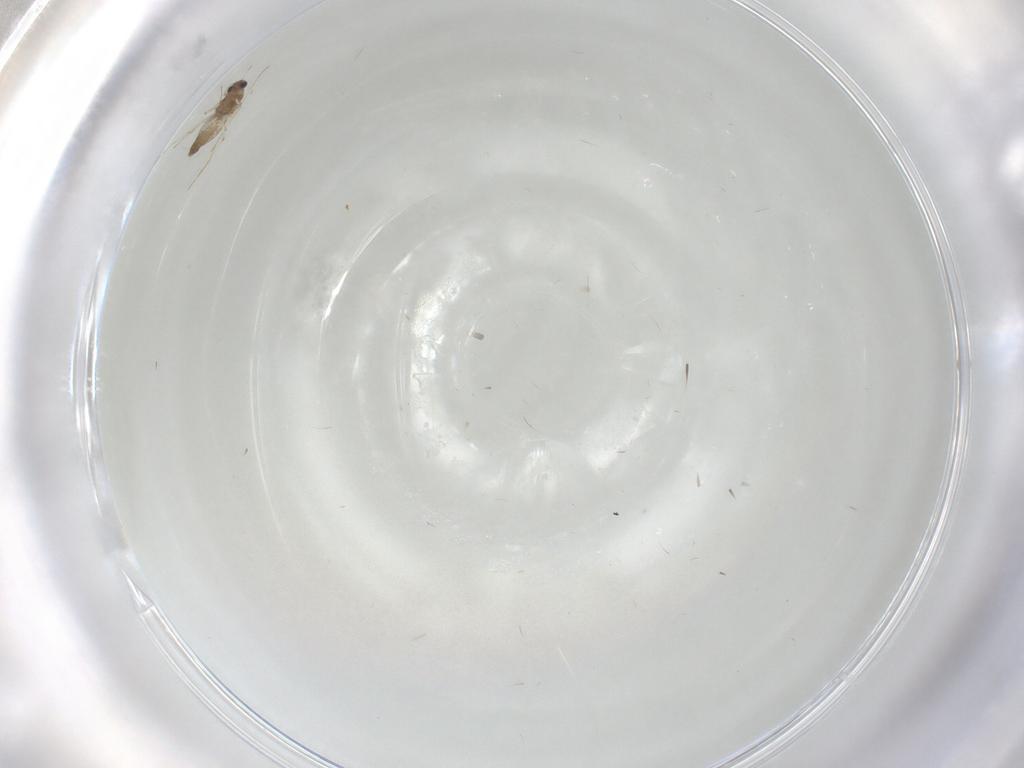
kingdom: Animalia
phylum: Arthropoda
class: Insecta
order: Diptera
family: Chironomidae
